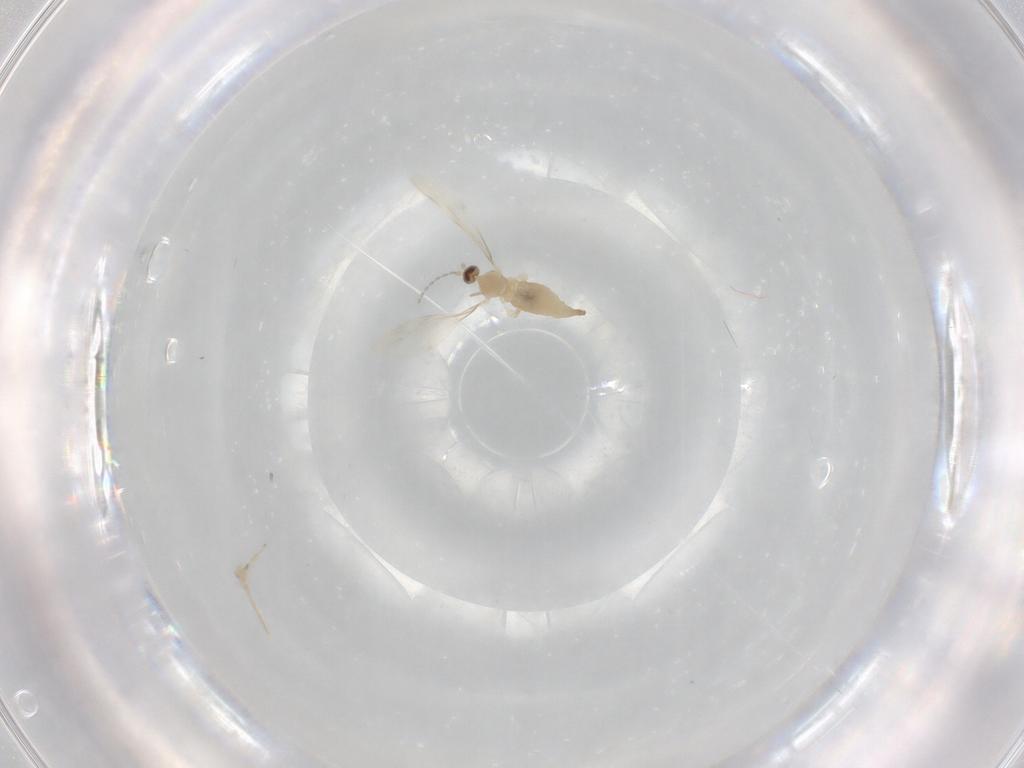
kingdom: Animalia
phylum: Arthropoda
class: Insecta
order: Diptera
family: Cecidomyiidae
